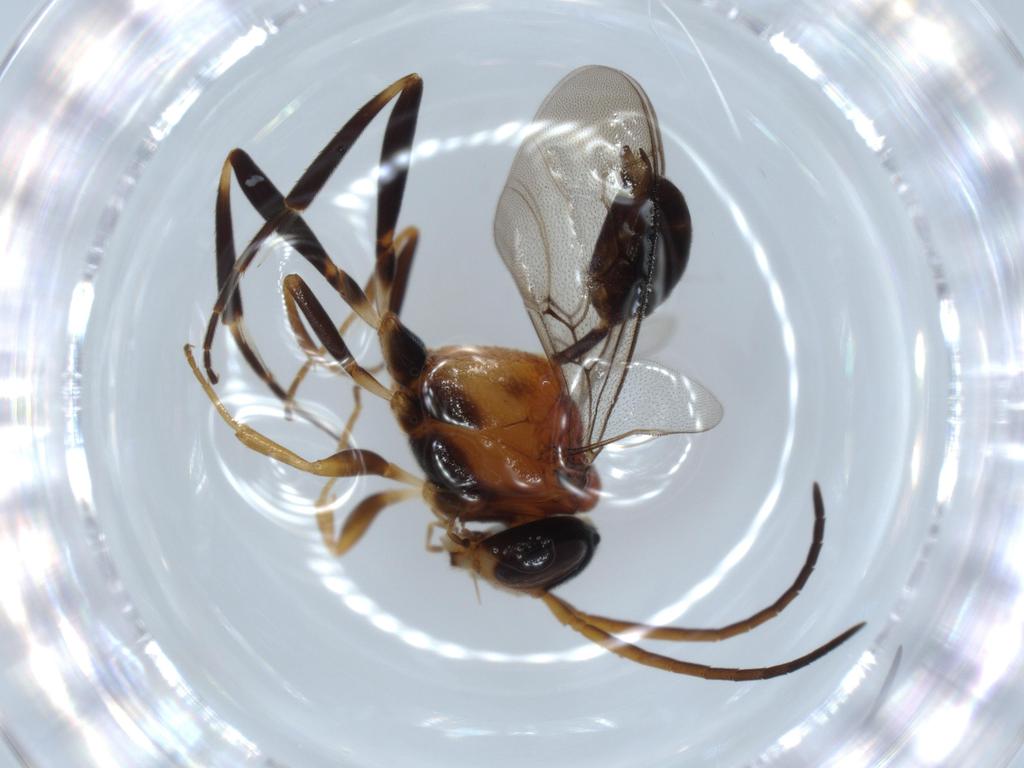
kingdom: Animalia
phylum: Arthropoda
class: Insecta
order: Hymenoptera
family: Evaniidae
